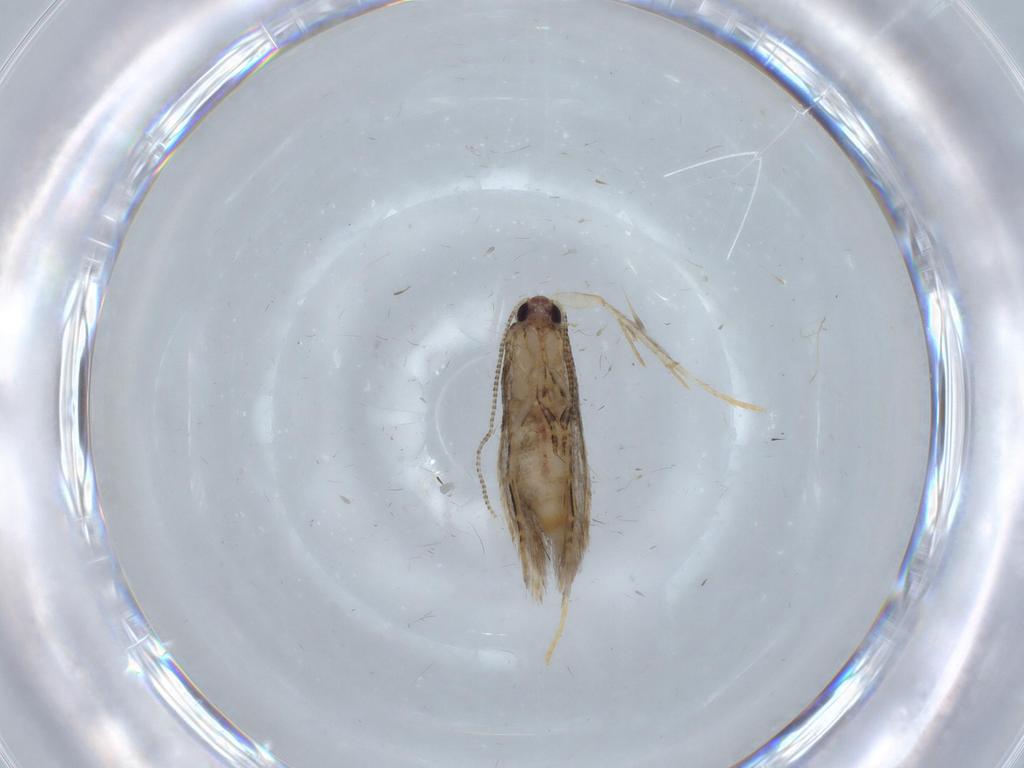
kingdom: Animalia
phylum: Arthropoda
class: Insecta
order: Lepidoptera
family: Tineidae
